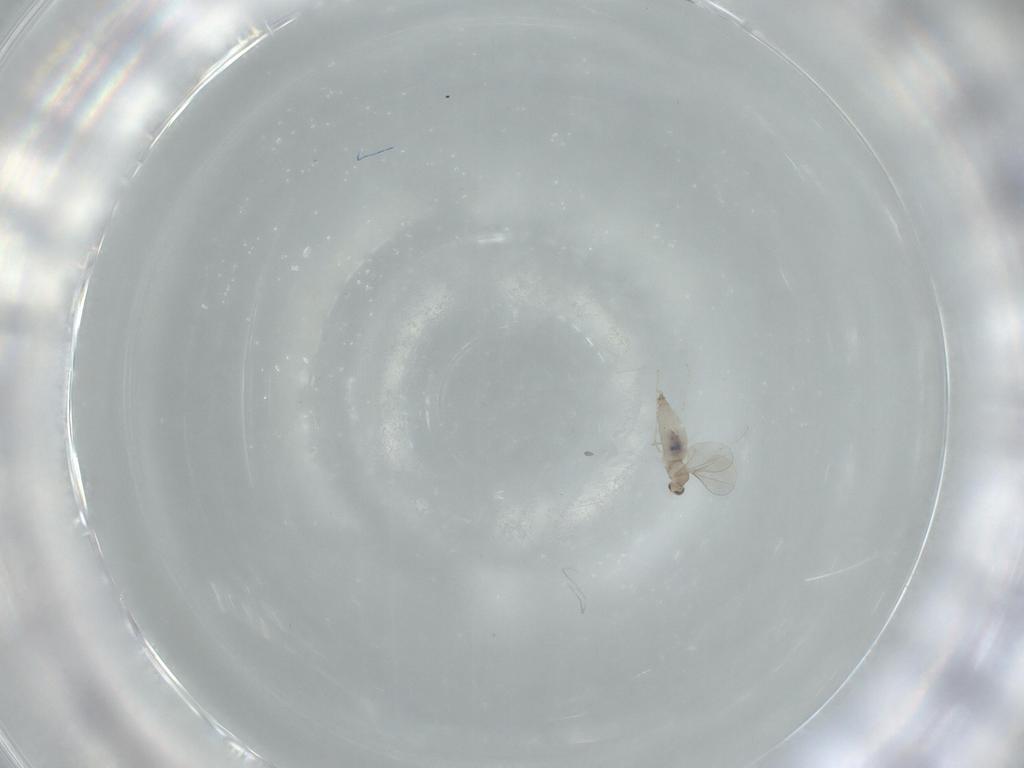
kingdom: Animalia
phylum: Arthropoda
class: Insecta
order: Diptera
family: Cecidomyiidae
